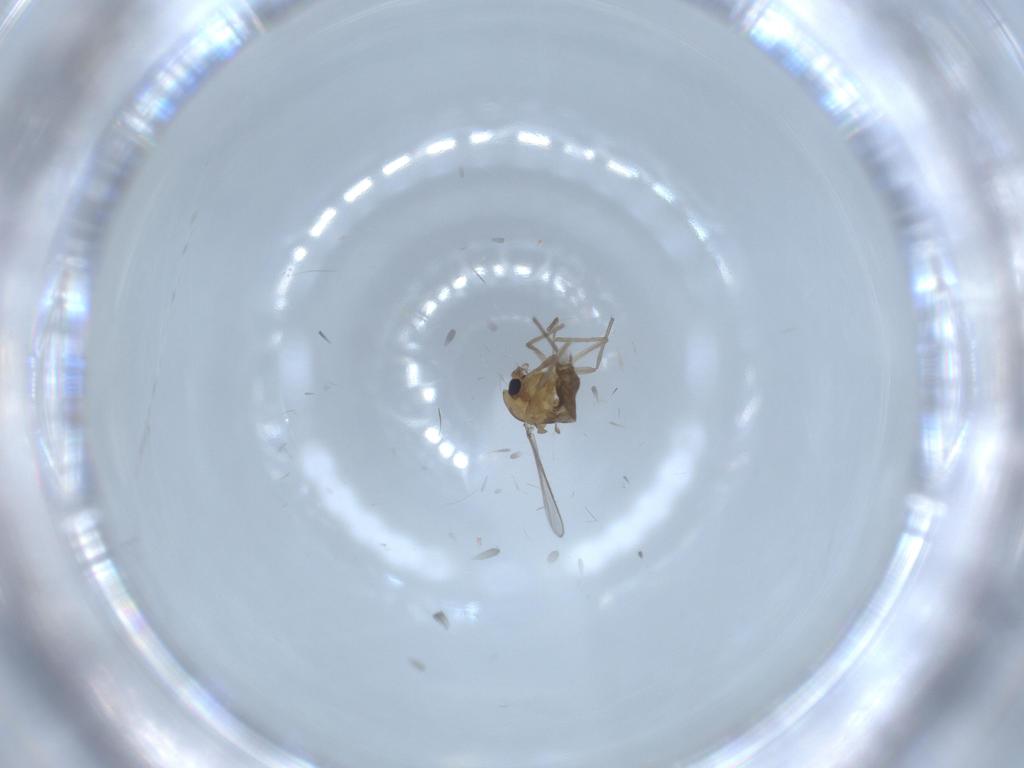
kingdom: Animalia
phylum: Arthropoda
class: Insecta
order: Diptera
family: Chironomidae
